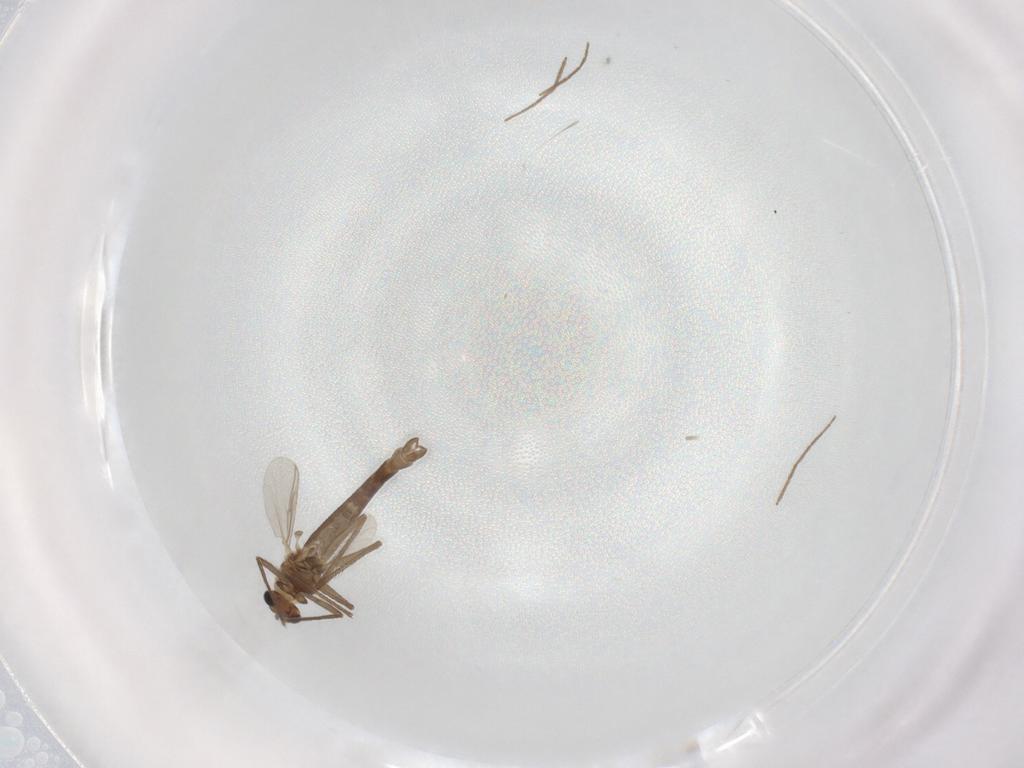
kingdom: Animalia
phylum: Arthropoda
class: Insecta
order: Diptera
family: Chironomidae
